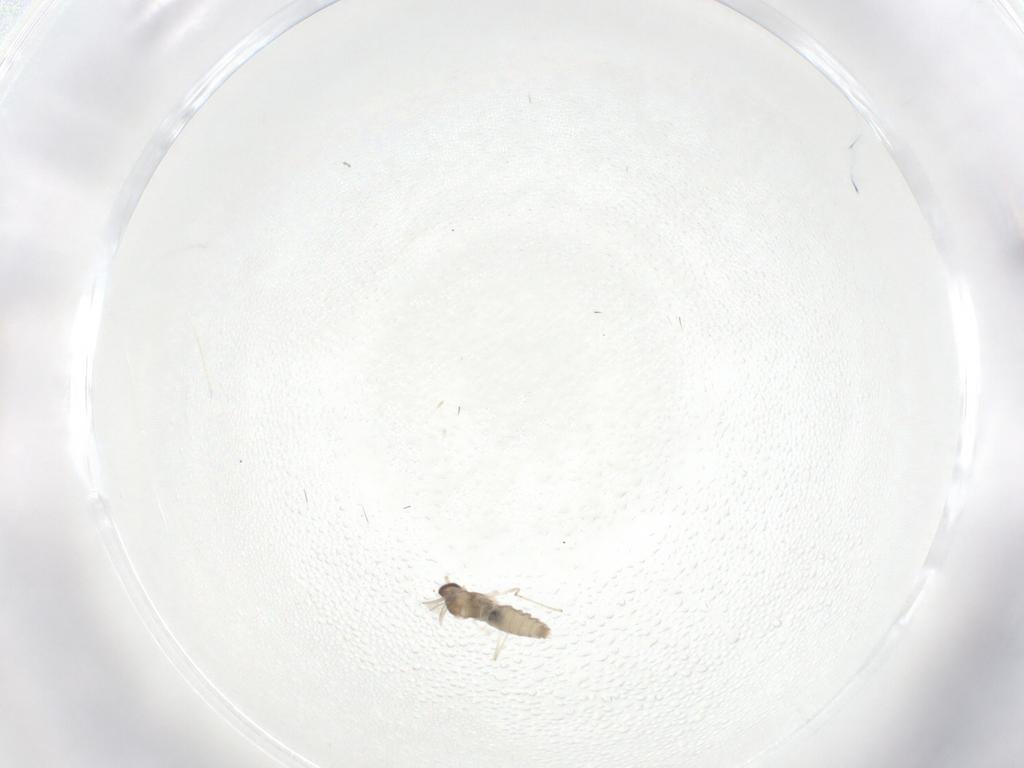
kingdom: Animalia
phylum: Arthropoda
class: Insecta
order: Diptera
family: Cecidomyiidae
